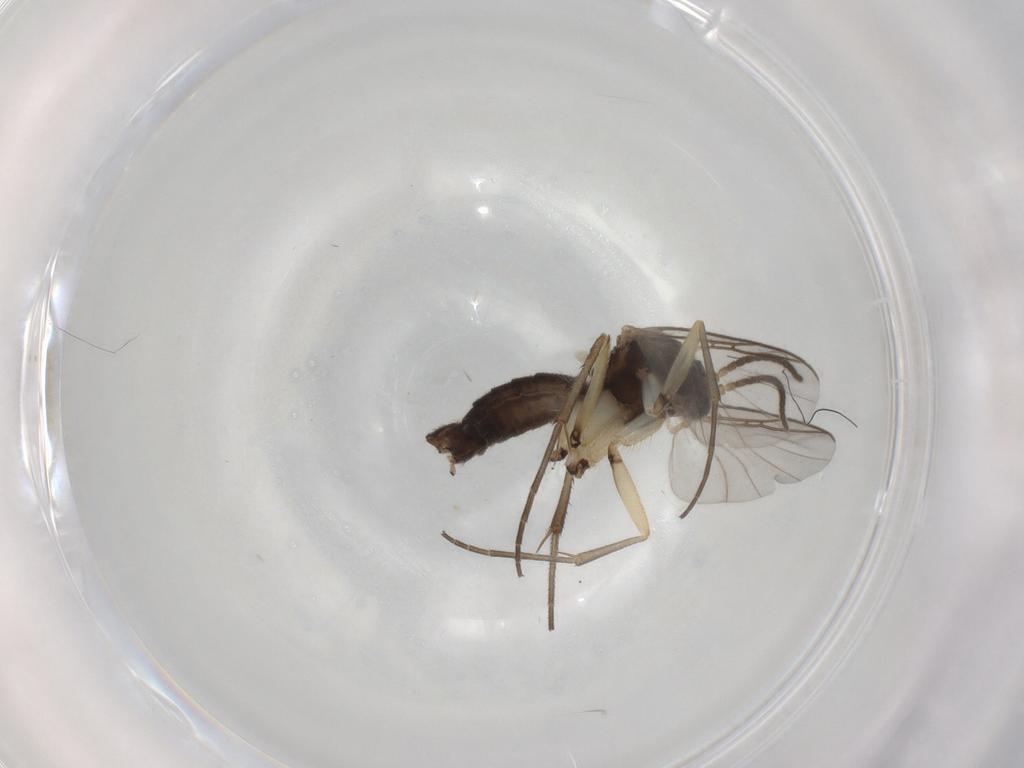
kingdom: Animalia
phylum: Arthropoda
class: Insecta
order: Diptera
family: Mycetophilidae
